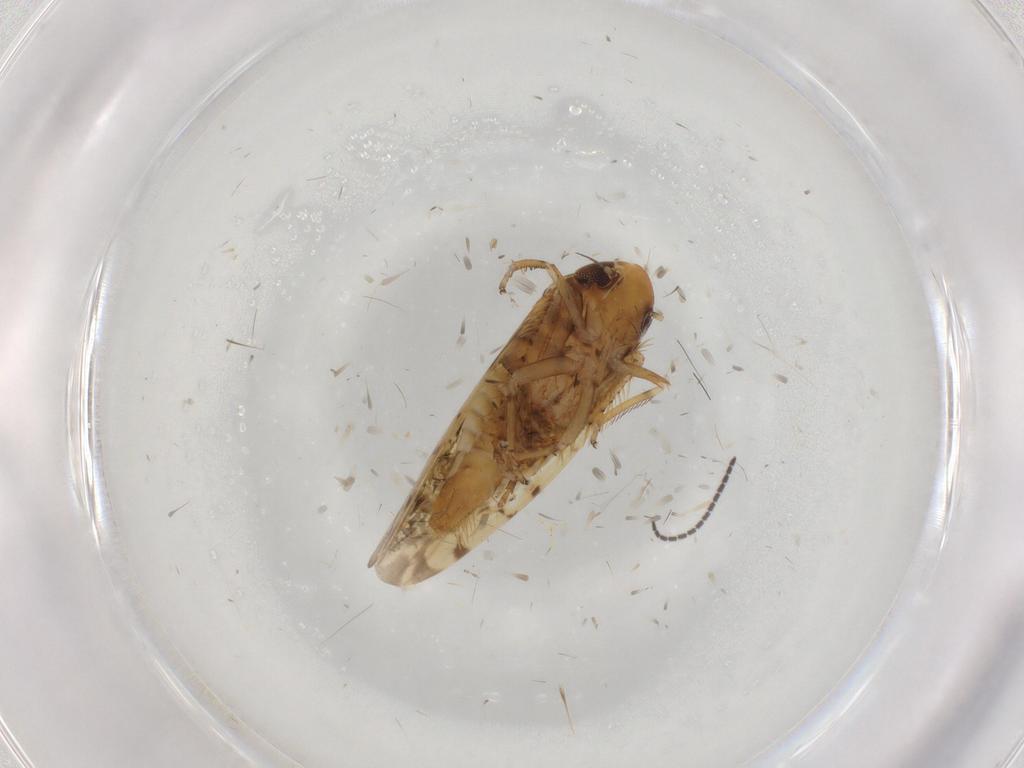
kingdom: Animalia
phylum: Arthropoda
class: Insecta
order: Hemiptera
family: Cicadellidae
